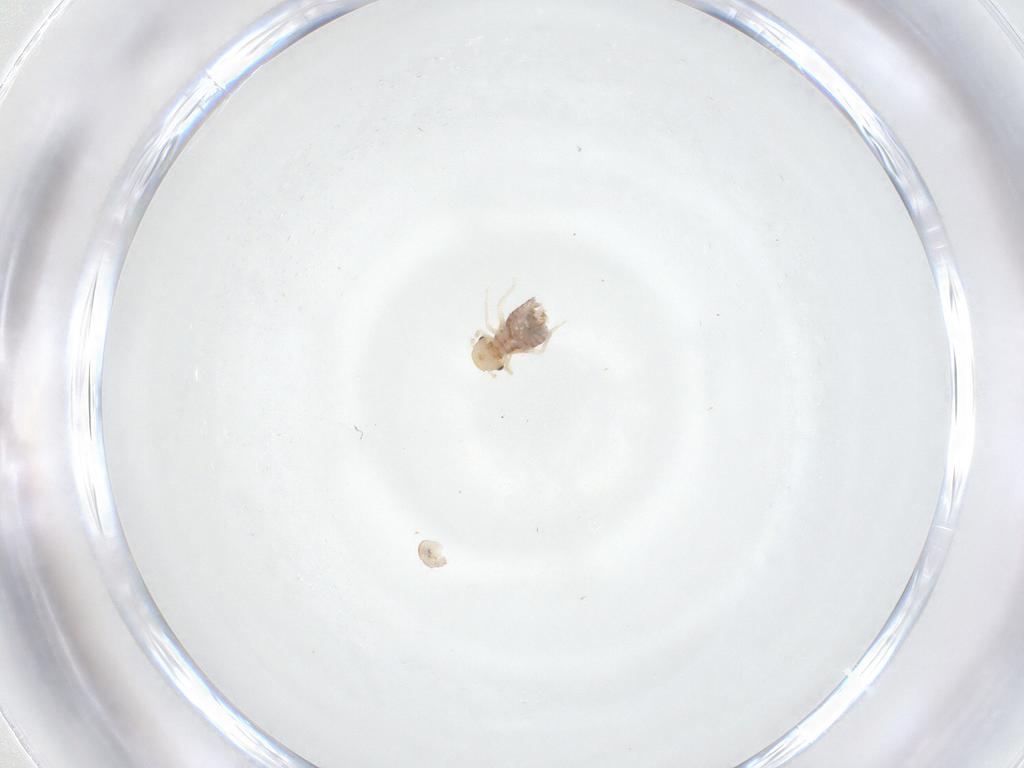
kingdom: Animalia
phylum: Arthropoda
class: Insecta
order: Psocodea
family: Lachesillidae
